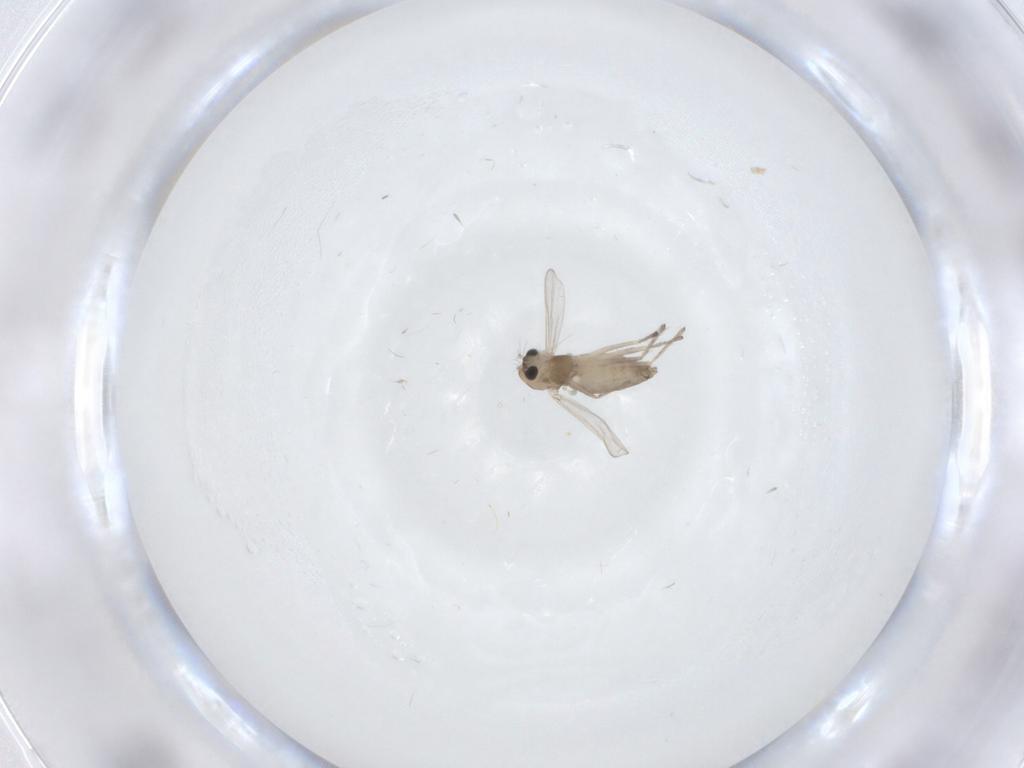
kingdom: Animalia
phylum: Arthropoda
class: Insecta
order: Diptera
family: Chironomidae
